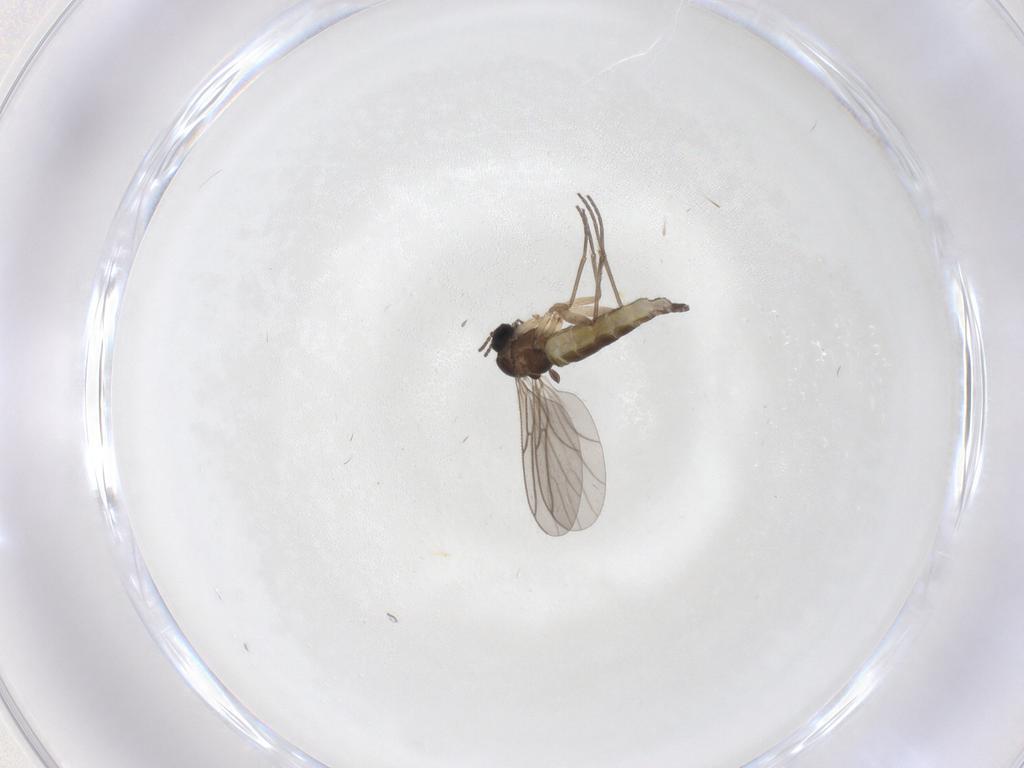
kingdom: Animalia
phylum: Arthropoda
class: Insecta
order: Diptera
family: Sciaridae
